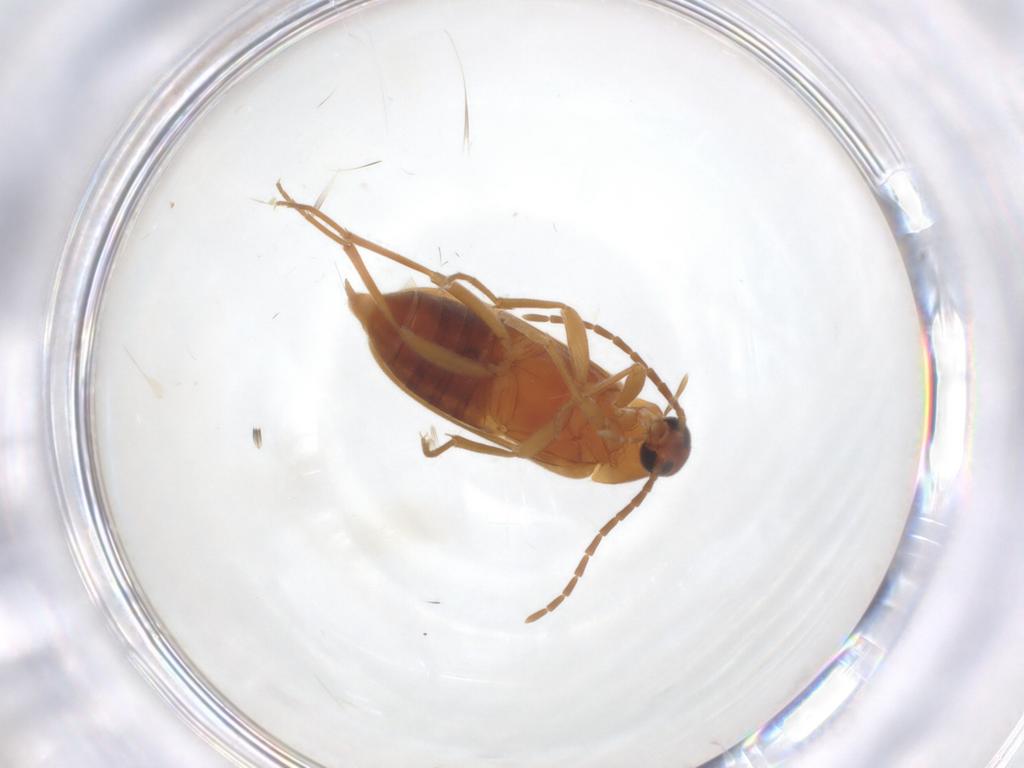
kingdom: Animalia
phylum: Arthropoda
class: Insecta
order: Coleoptera
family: Scraptiidae
